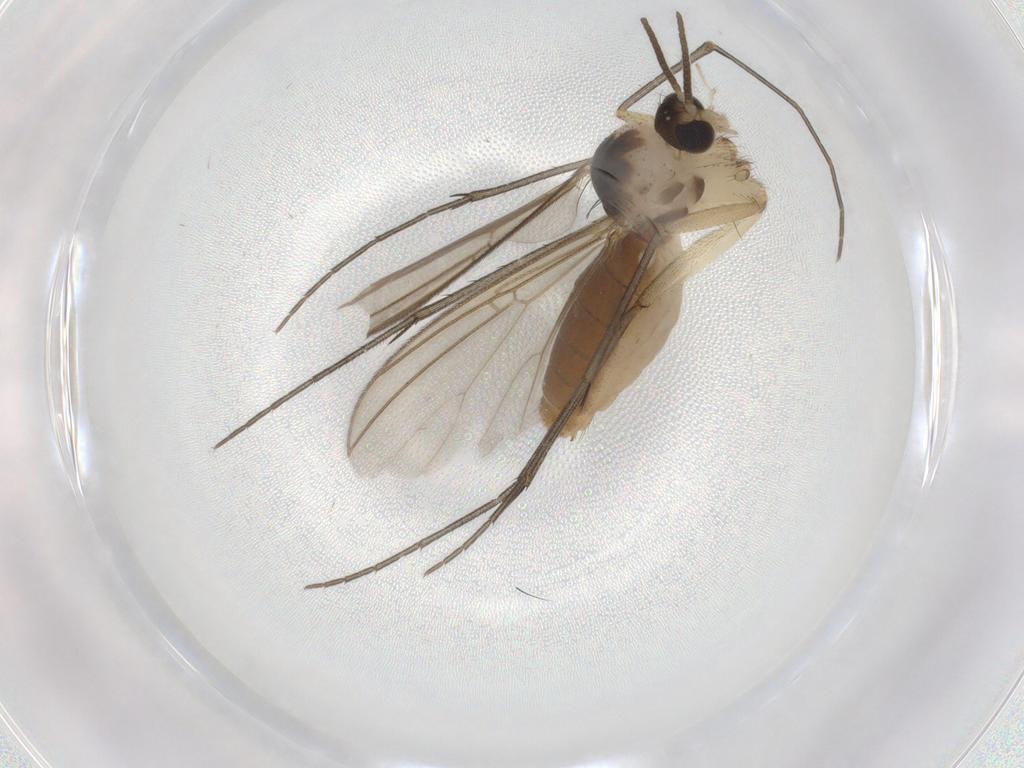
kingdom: Animalia
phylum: Arthropoda
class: Insecta
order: Diptera
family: Mycetophilidae
